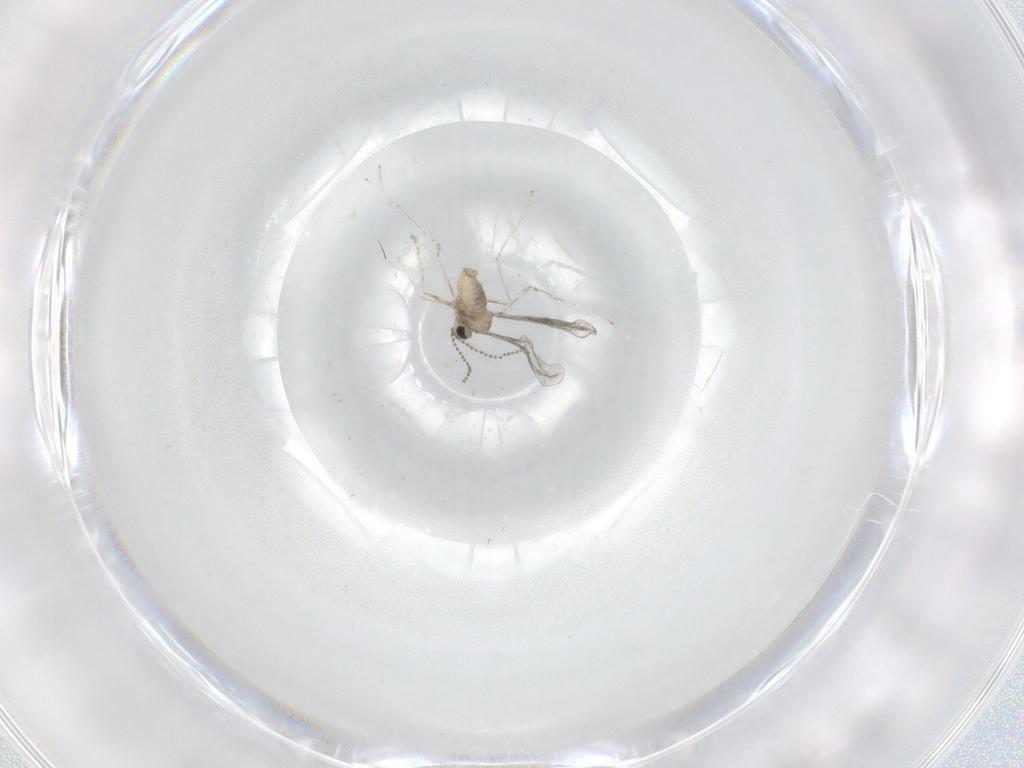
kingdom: Animalia
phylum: Arthropoda
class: Insecta
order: Diptera
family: Cecidomyiidae
